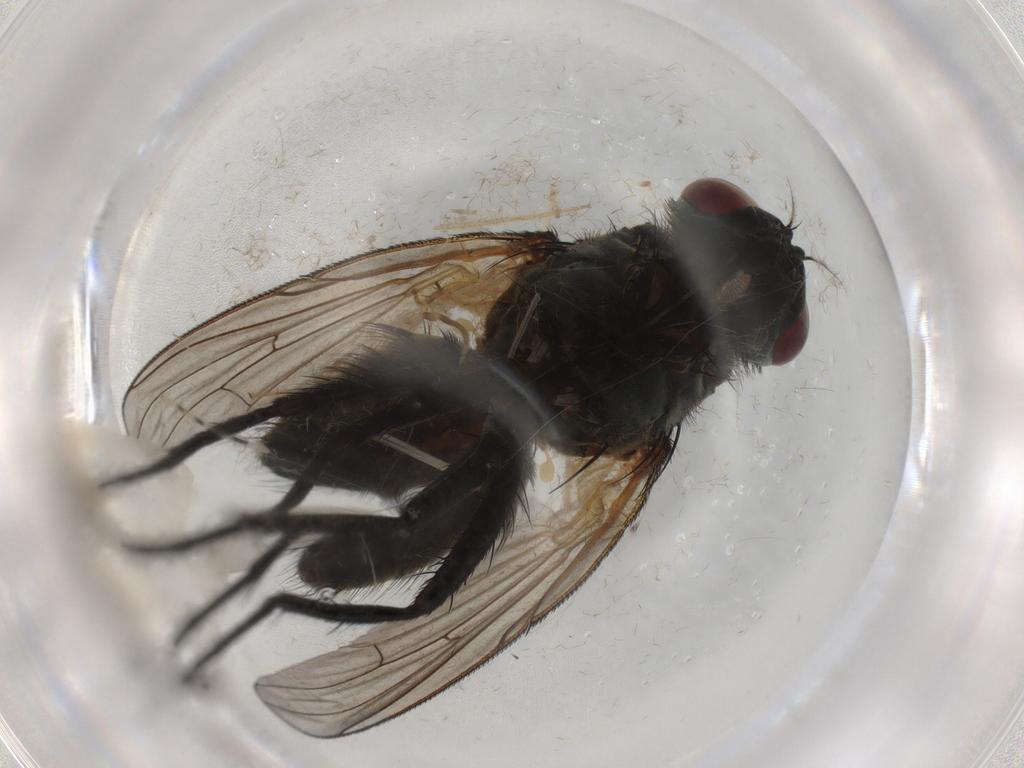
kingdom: Animalia
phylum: Arthropoda
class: Insecta
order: Diptera
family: Muscidae
